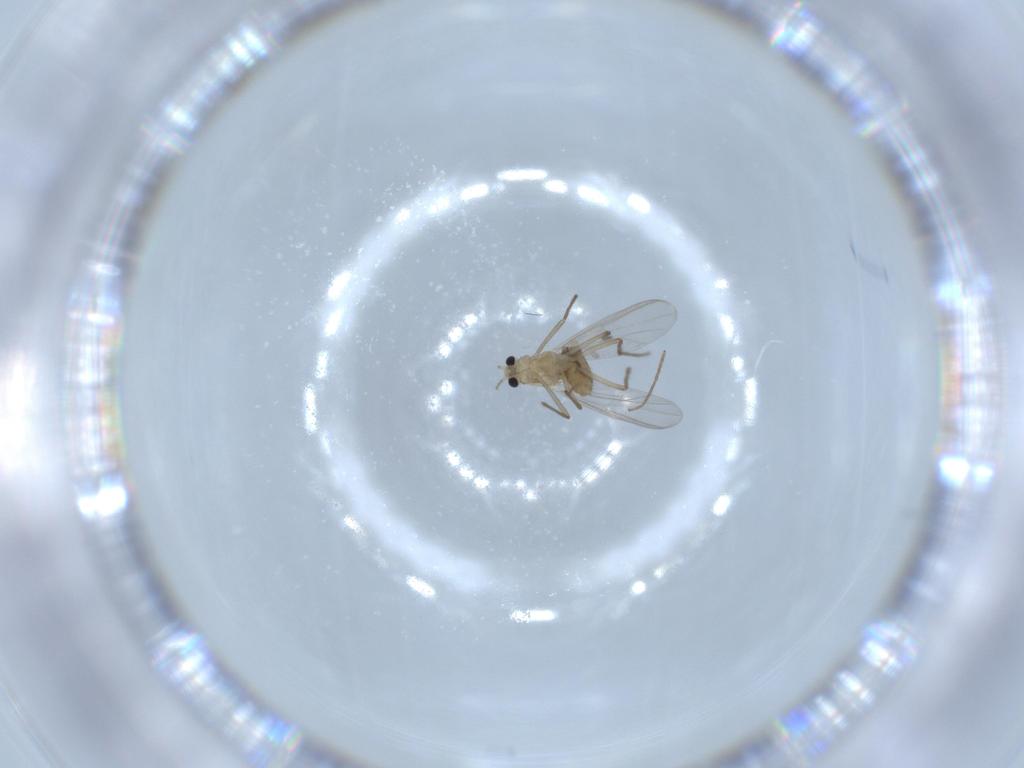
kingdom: Animalia
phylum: Arthropoda
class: Insecta
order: Diptera
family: Chironomidae
